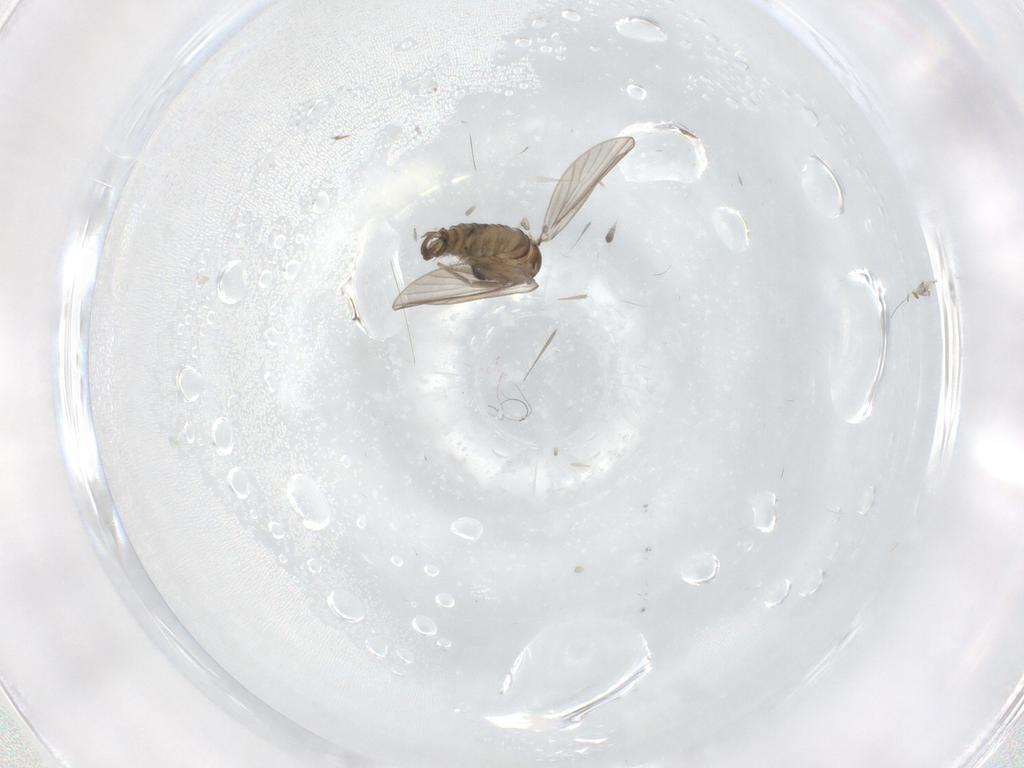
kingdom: Animalia
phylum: Arthropoda
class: Insecta
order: Diptera
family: Psychodidae
